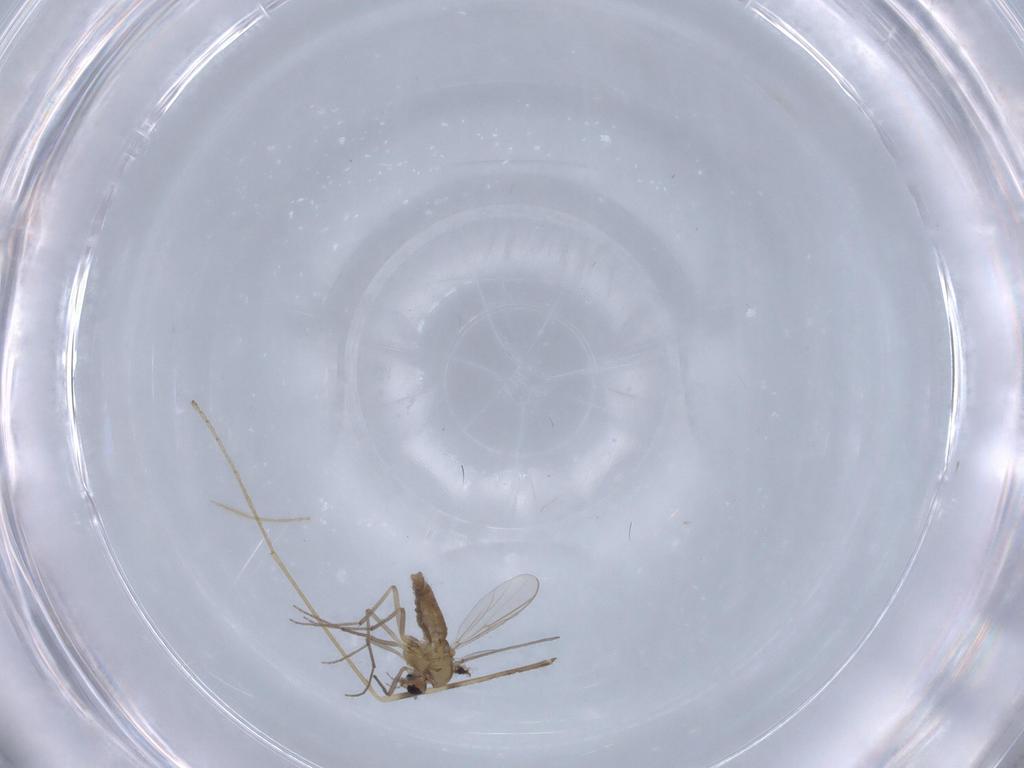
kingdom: Animalia
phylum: Arthropoda
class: Insecta
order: Diptera
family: Chironomidae
